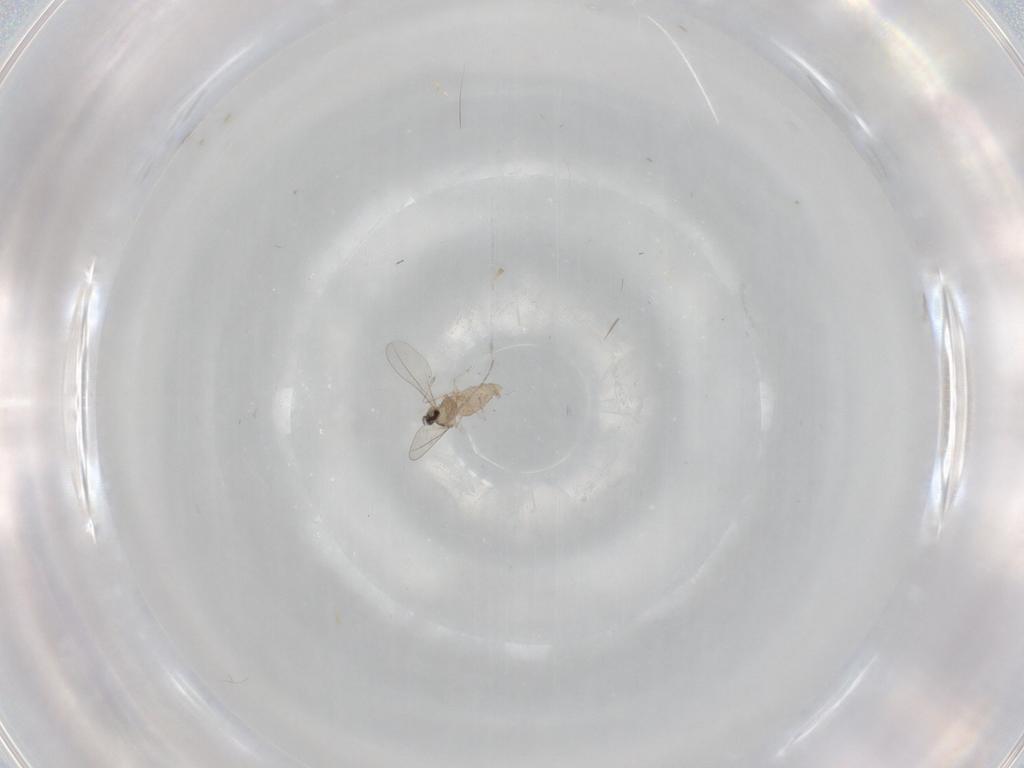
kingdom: Animalia
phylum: Arthropoda
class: Insecta
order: Diptera
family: Cecidomyiidae
